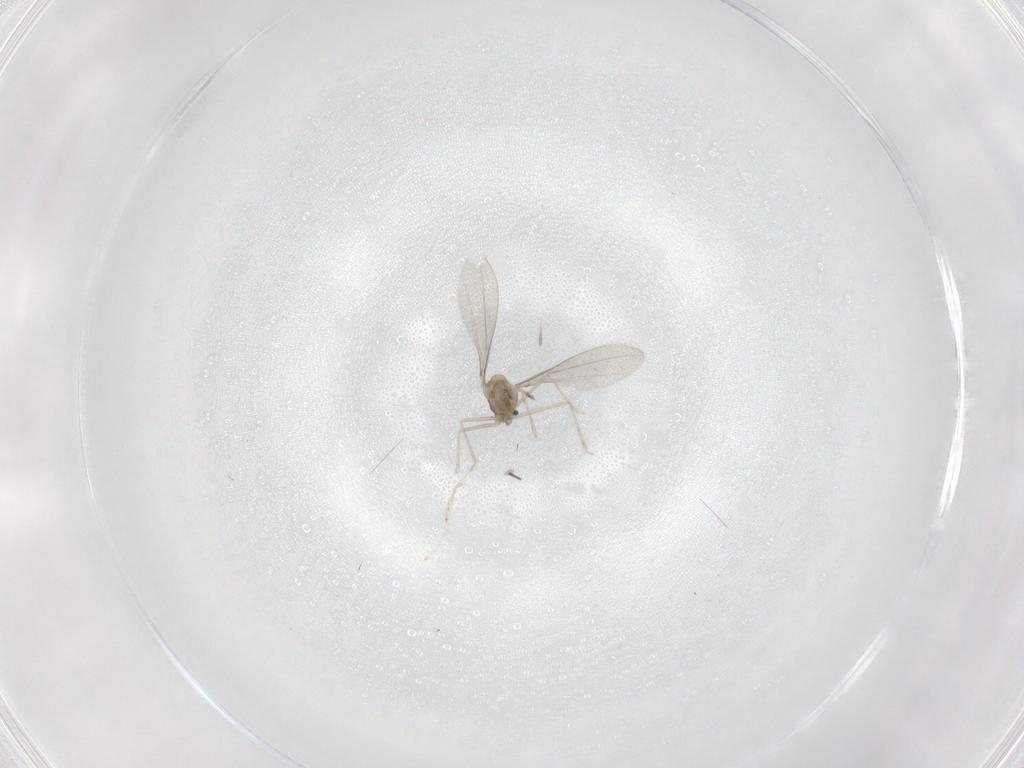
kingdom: Animalia
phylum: Arthropoda
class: Insecta
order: Diptera
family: Cecidomyiidae
